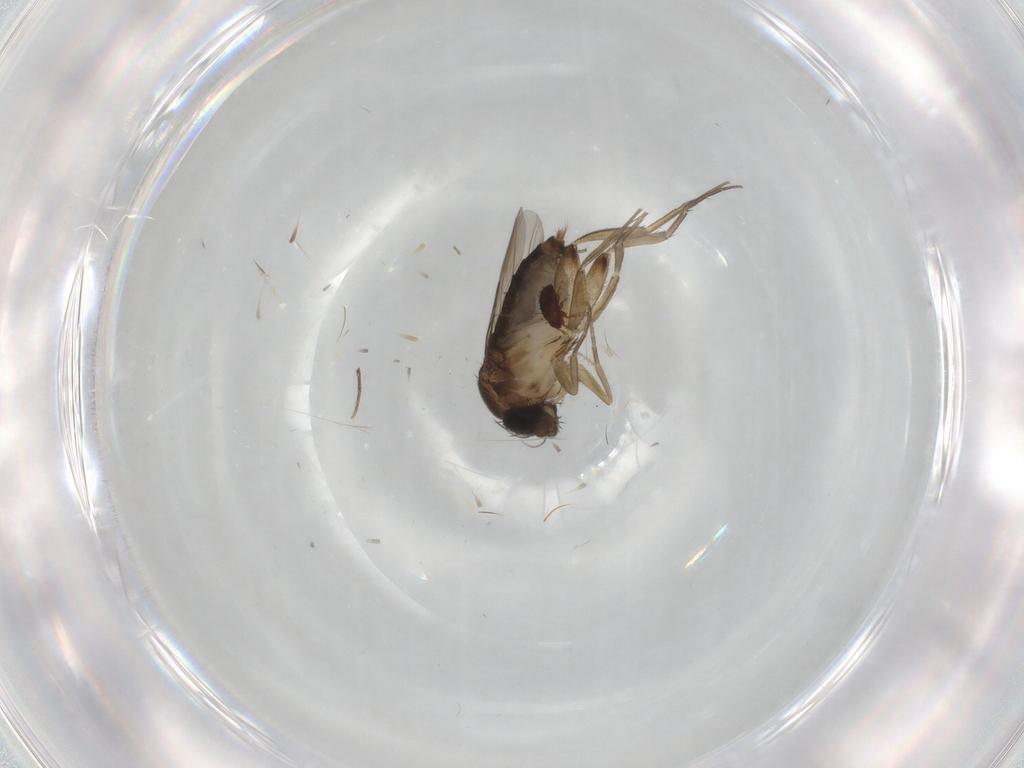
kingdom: Animalia
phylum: Arthropoda
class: Insecta
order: Diptera
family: Phoridae
